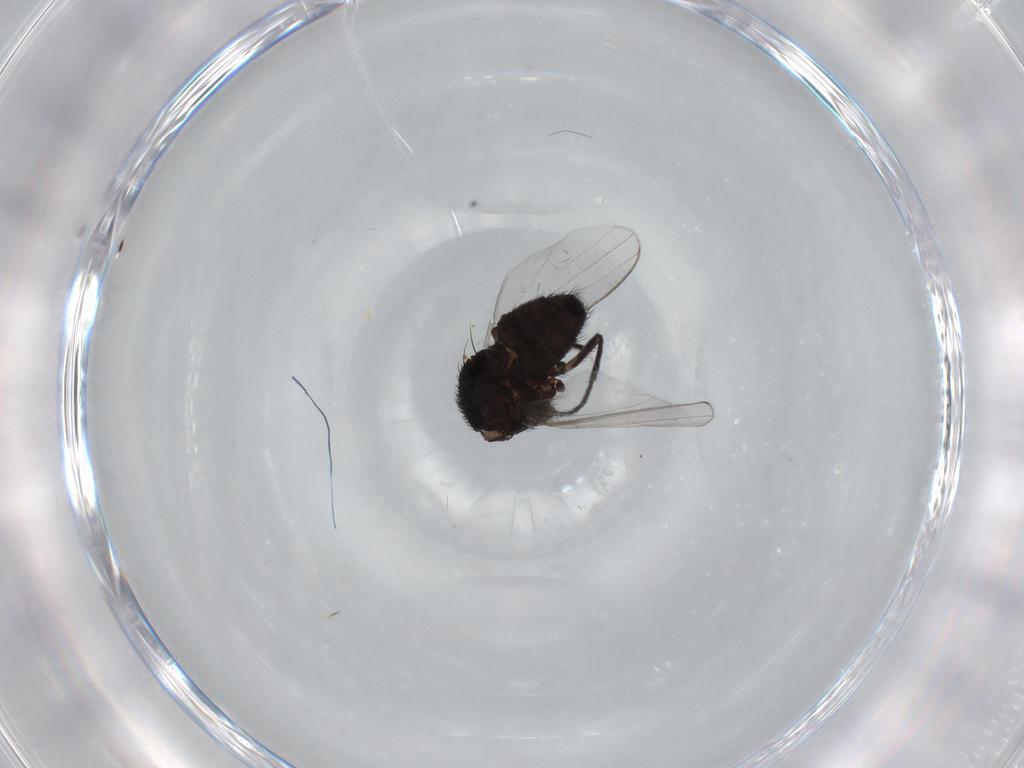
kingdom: Animalia
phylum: Arthropoda
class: Insecta
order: Diptera
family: Milichiidae
